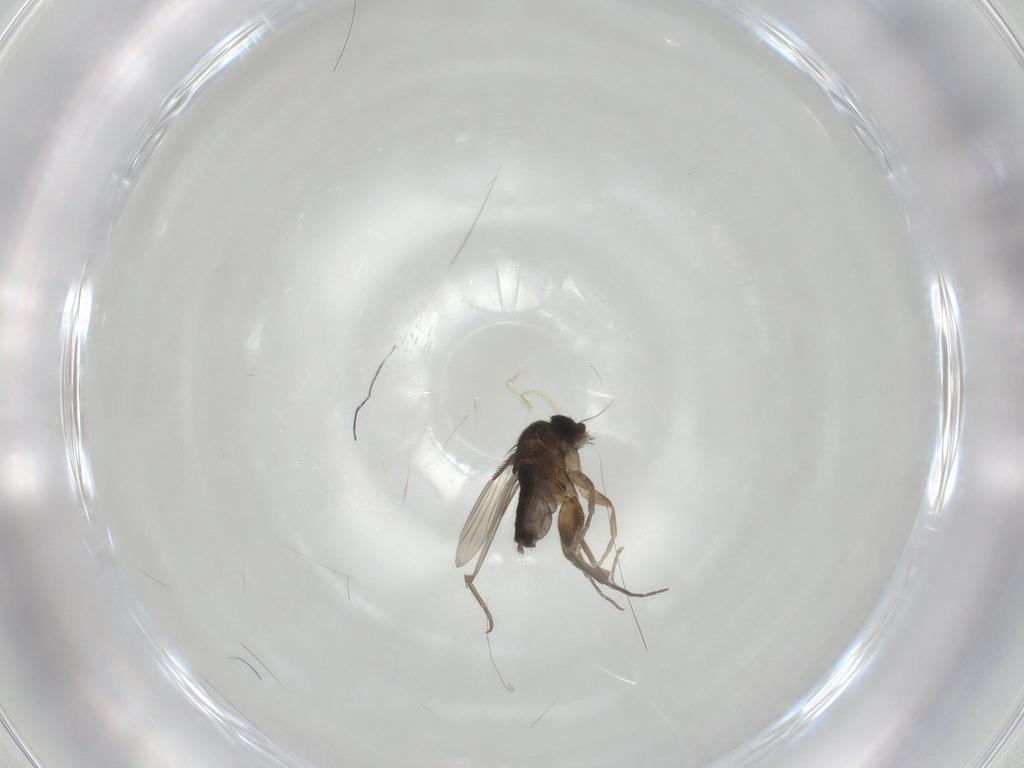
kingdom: Animalia
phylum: Arthropoda
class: Insecta
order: Diptera
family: Phoridae
